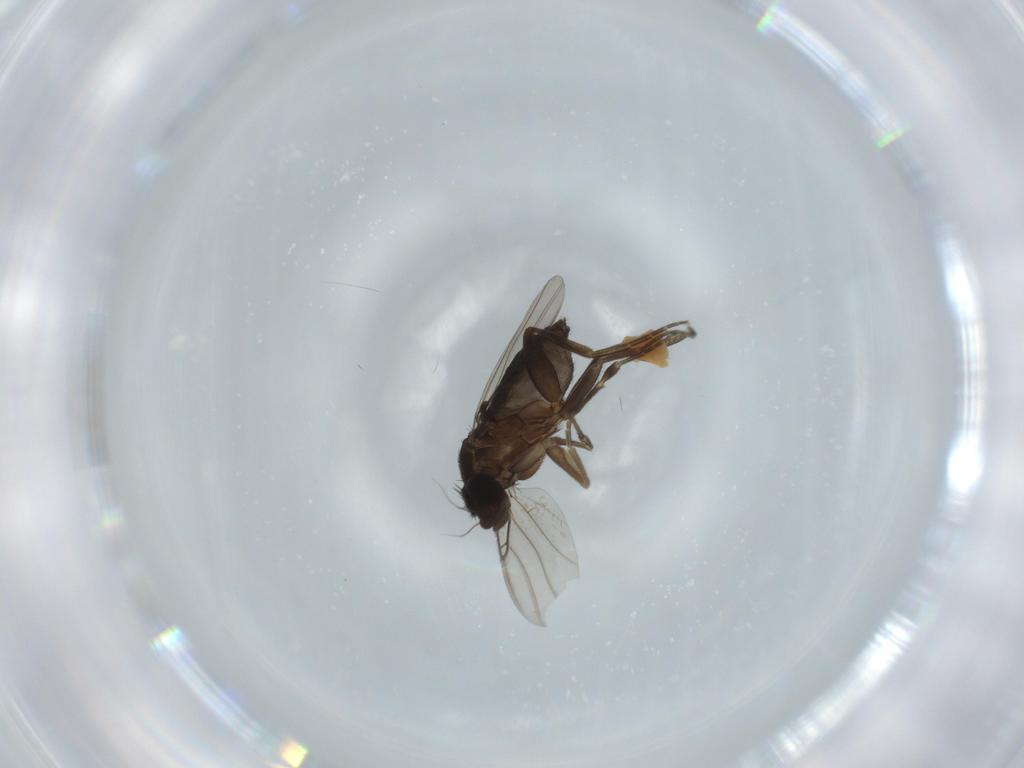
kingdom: Animalia
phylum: Arthropoda
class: Insecta
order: Diptera
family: Phoridae
